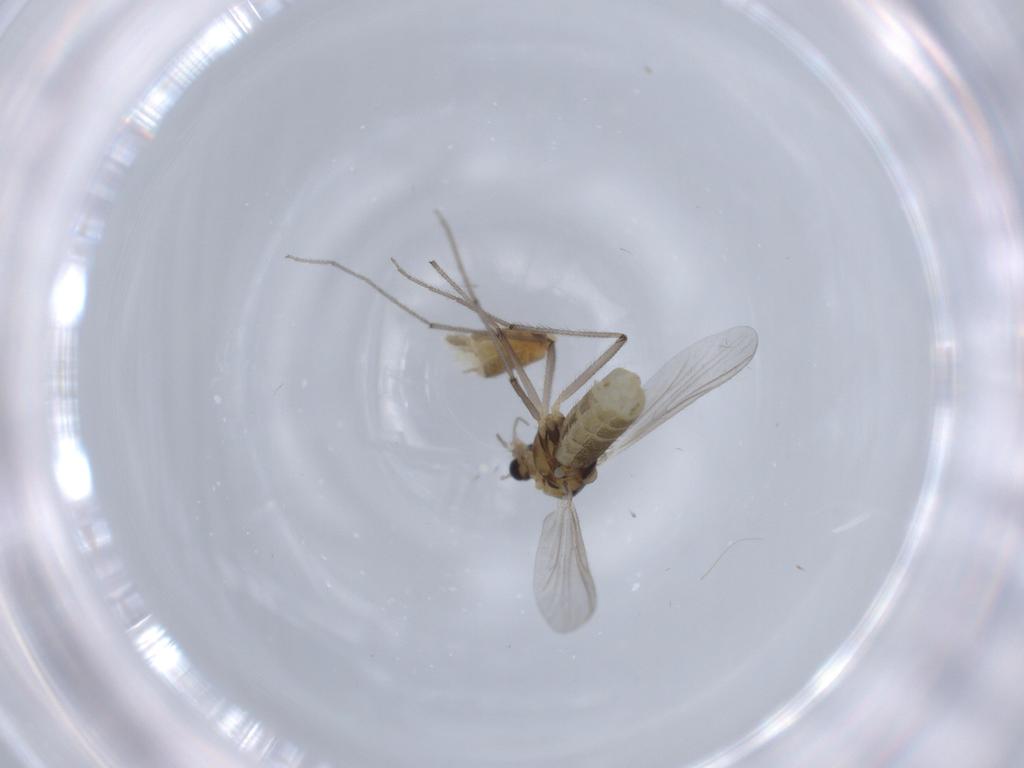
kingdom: Animalia
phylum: Arthropoda
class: Insecta
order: Diptera
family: Chironomidae
